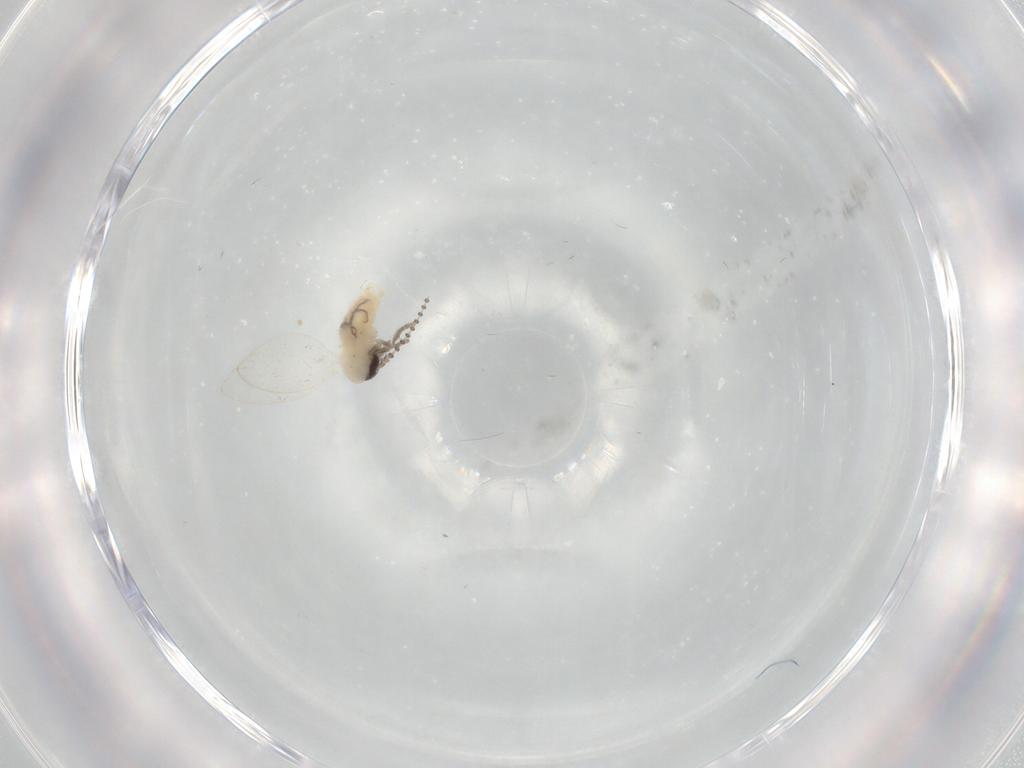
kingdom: Animalia
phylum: Arthropoda
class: Insecta
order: Diptera
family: Psychodidae
